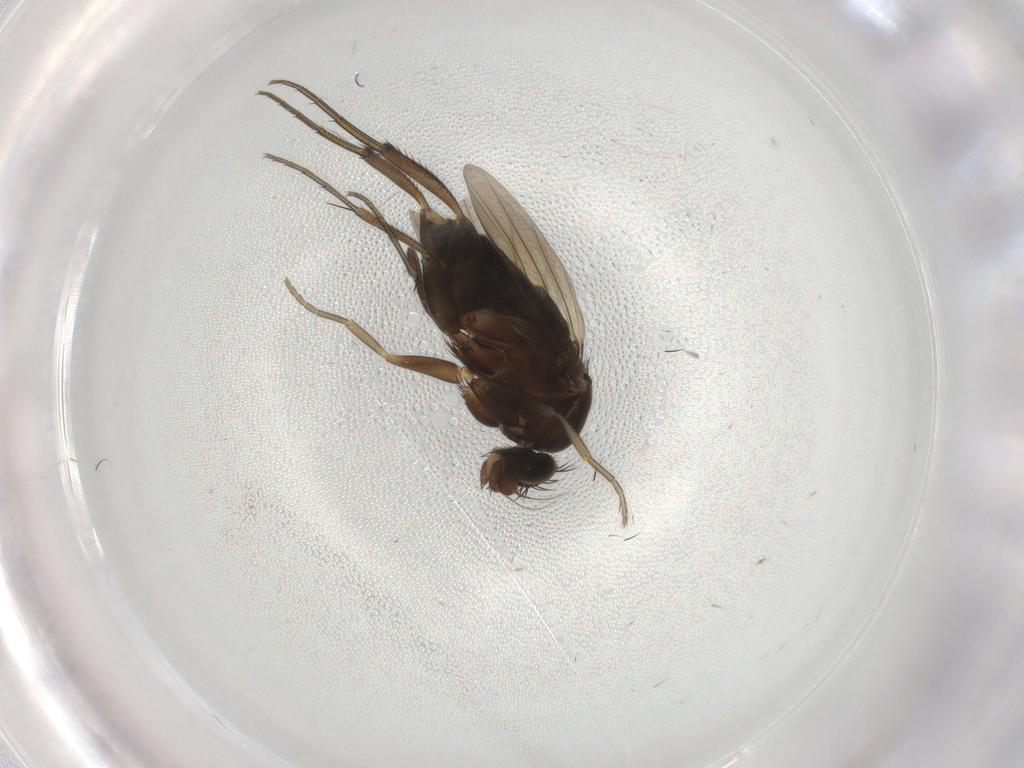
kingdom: Animalia
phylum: Arthropoda
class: Insecta
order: Diptera
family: Phoridae
